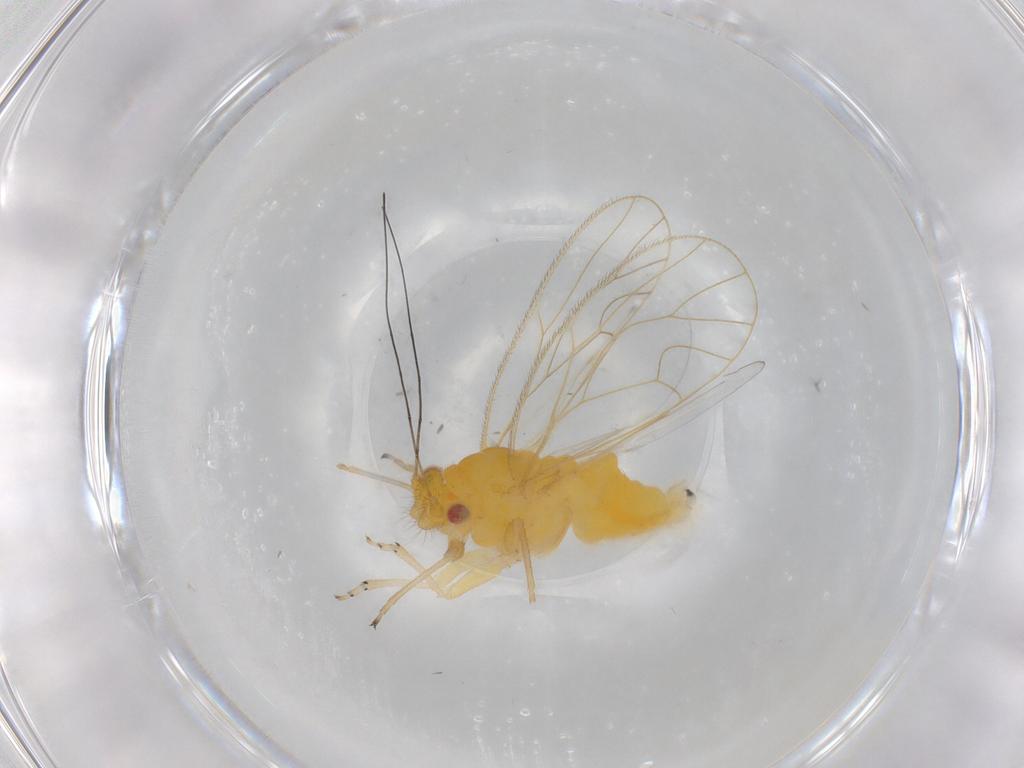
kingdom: Animalia
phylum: Arthropoda
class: Insecta
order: Hemiptera
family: Psyllidae
